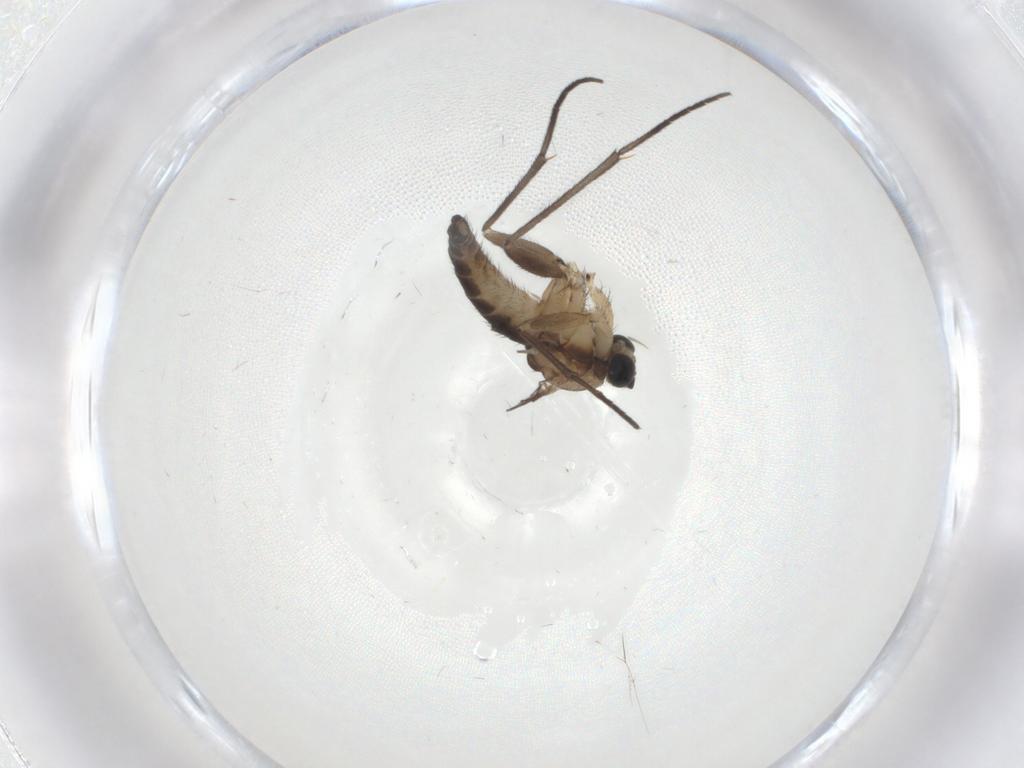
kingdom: Animalia
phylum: Arthropoda
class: Insecta
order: Diptera
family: Sciaridae
